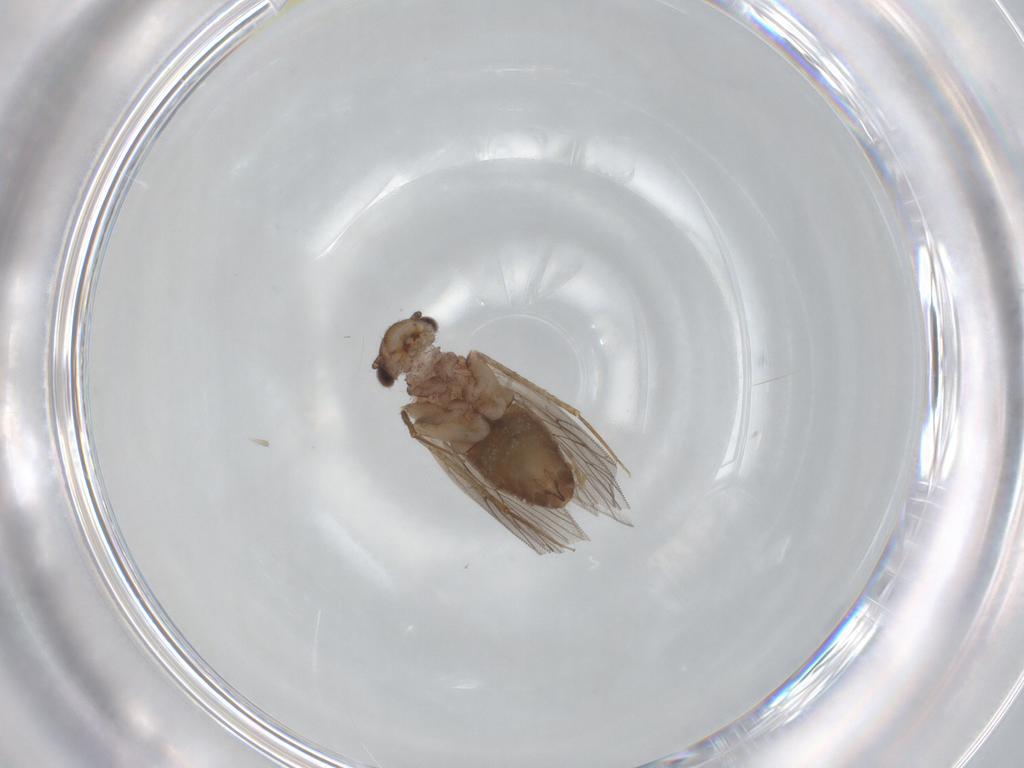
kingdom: Animalia
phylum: Arthropoda
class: Insecta
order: Psocodea
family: Lepidopsocidae
